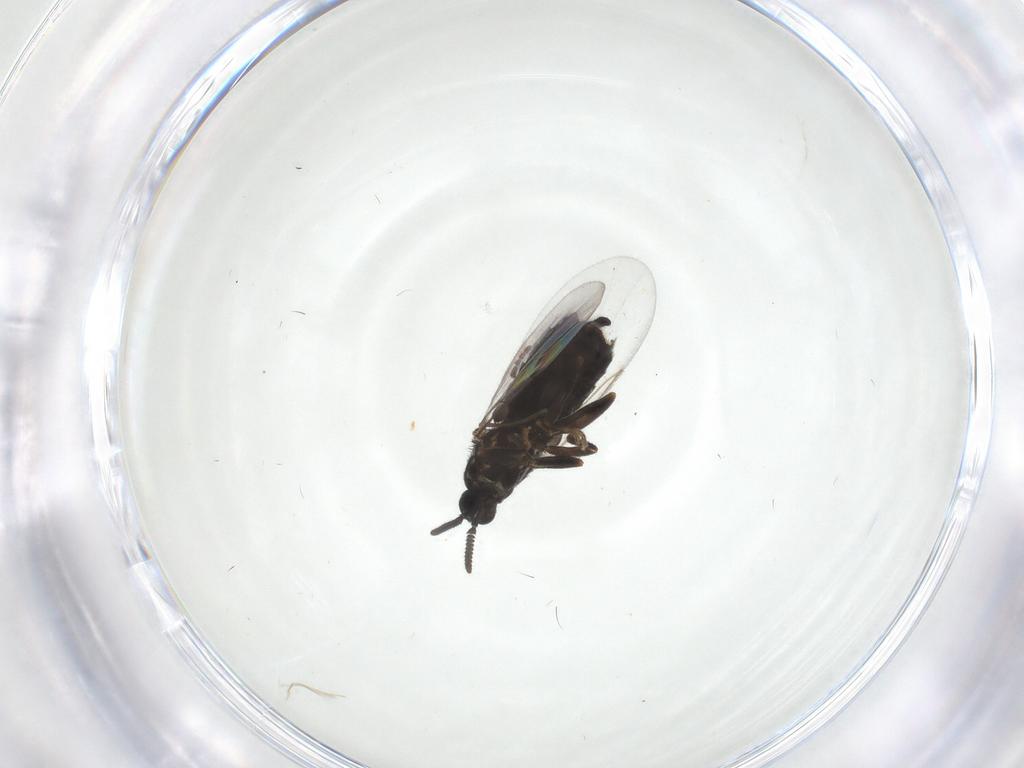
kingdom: Animalia
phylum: Arthropoda
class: Insecta
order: Diptera
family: Cecidomyiidae
